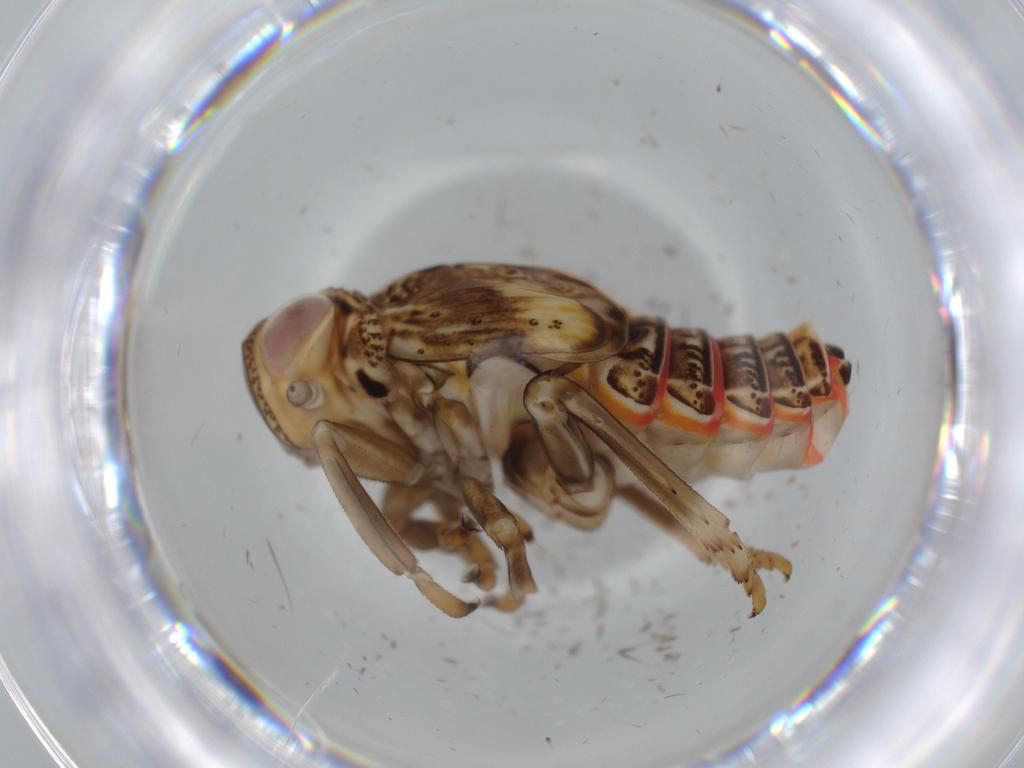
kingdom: Animalia
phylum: Arthropoda
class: Insecta
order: Hemiptera
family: Issidae
